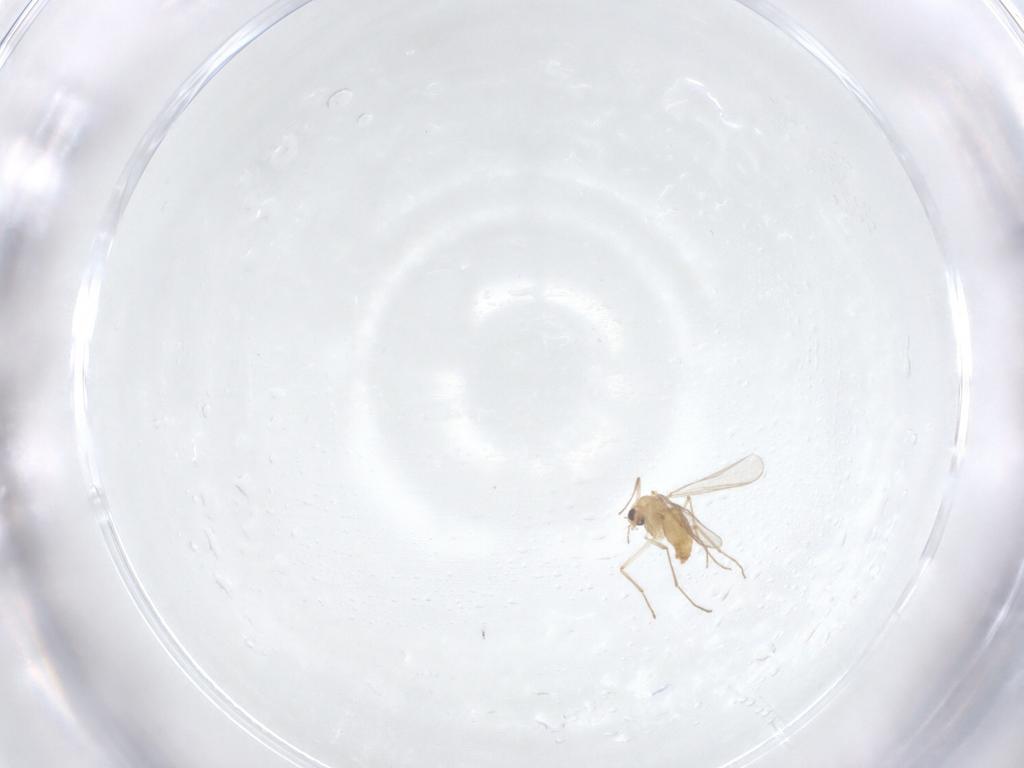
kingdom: Animalia
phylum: Arthropoda
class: Insecta
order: Diptera
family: Chironomidae
